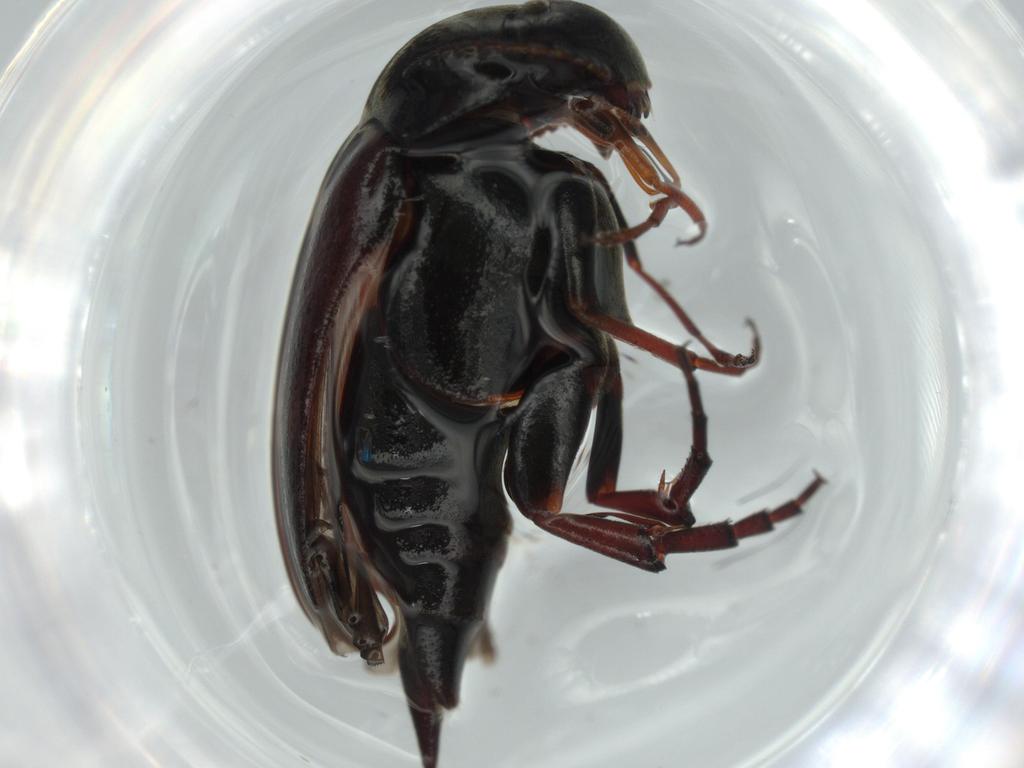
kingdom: Animalia
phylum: Arthropoda
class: Insecta
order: Coleoptera
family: Mordellidae
